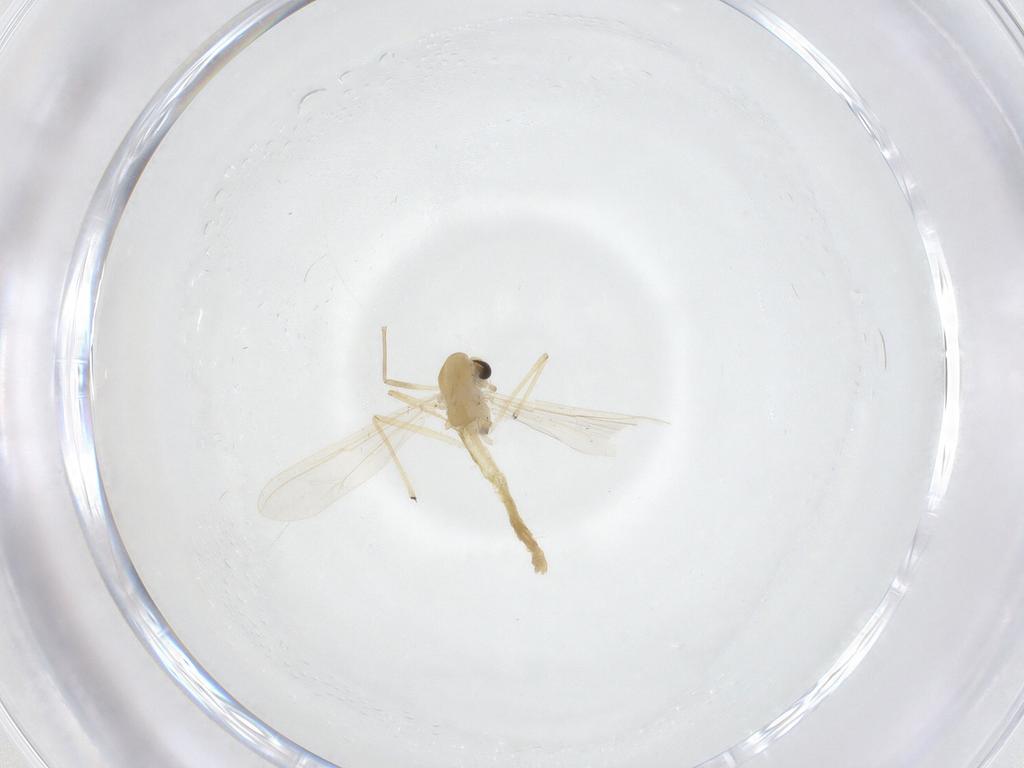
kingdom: Animalia
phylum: Arthropoda
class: Insecta
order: Diptera
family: Chironomidae
